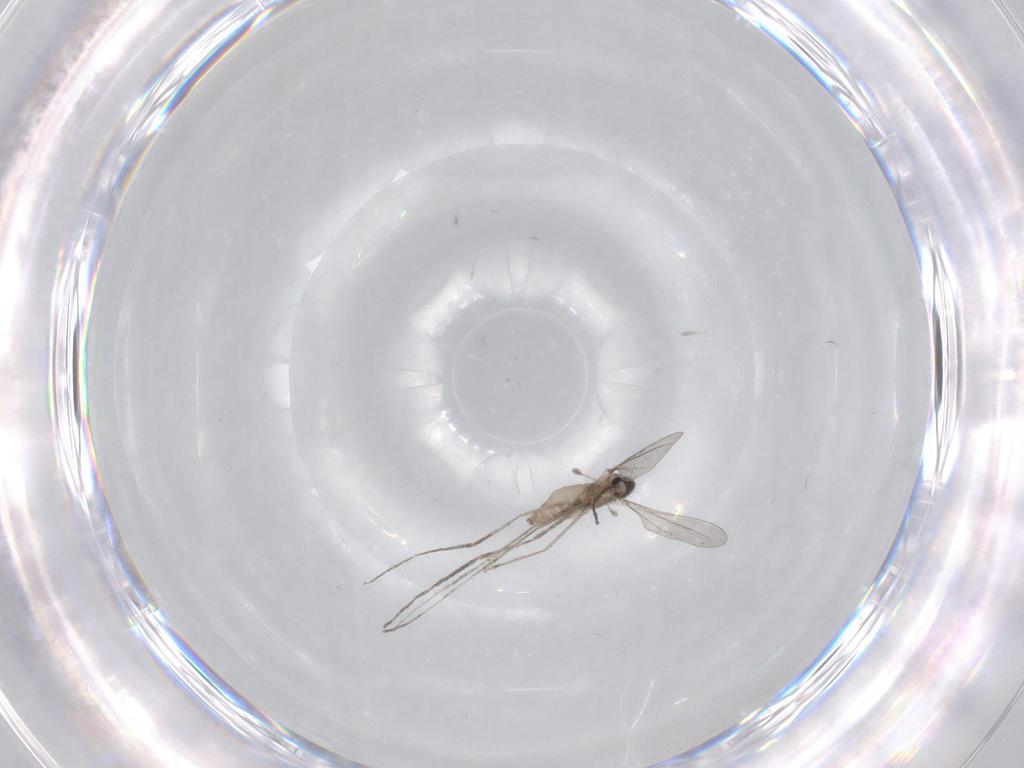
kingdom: Animalia
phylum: Arthropoda
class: Insecta
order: Diptera
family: Cecidomyiidae
